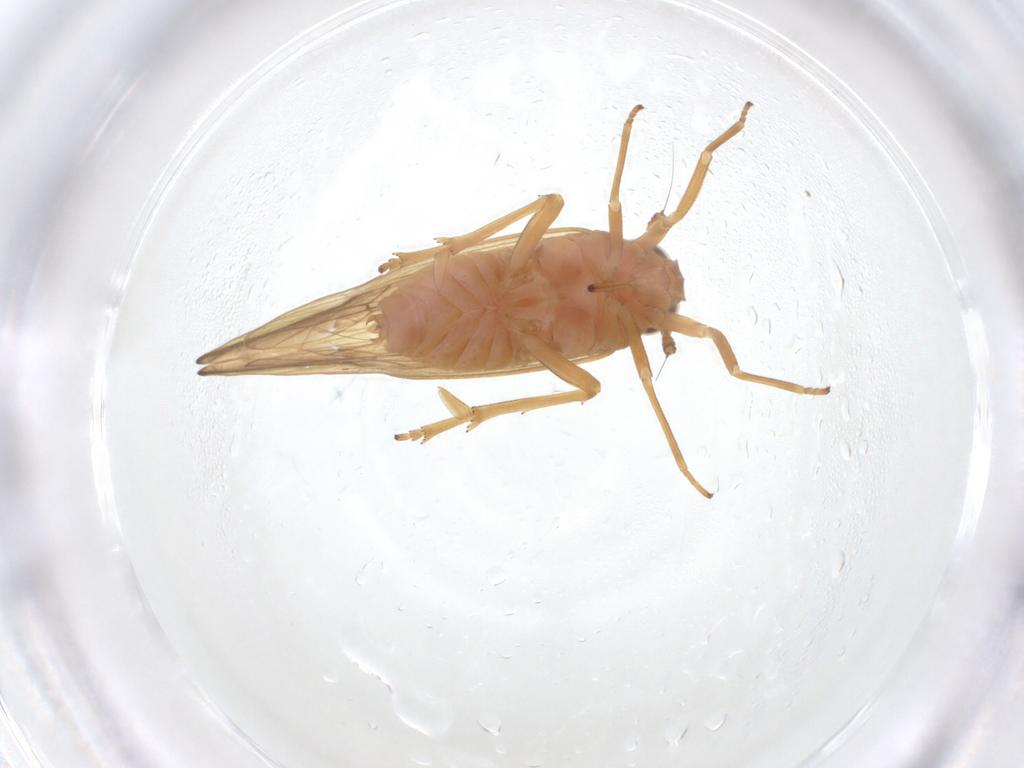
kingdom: Animalia
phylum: Arthropoda
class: Insecta
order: Hemiptera
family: Delphacidae
